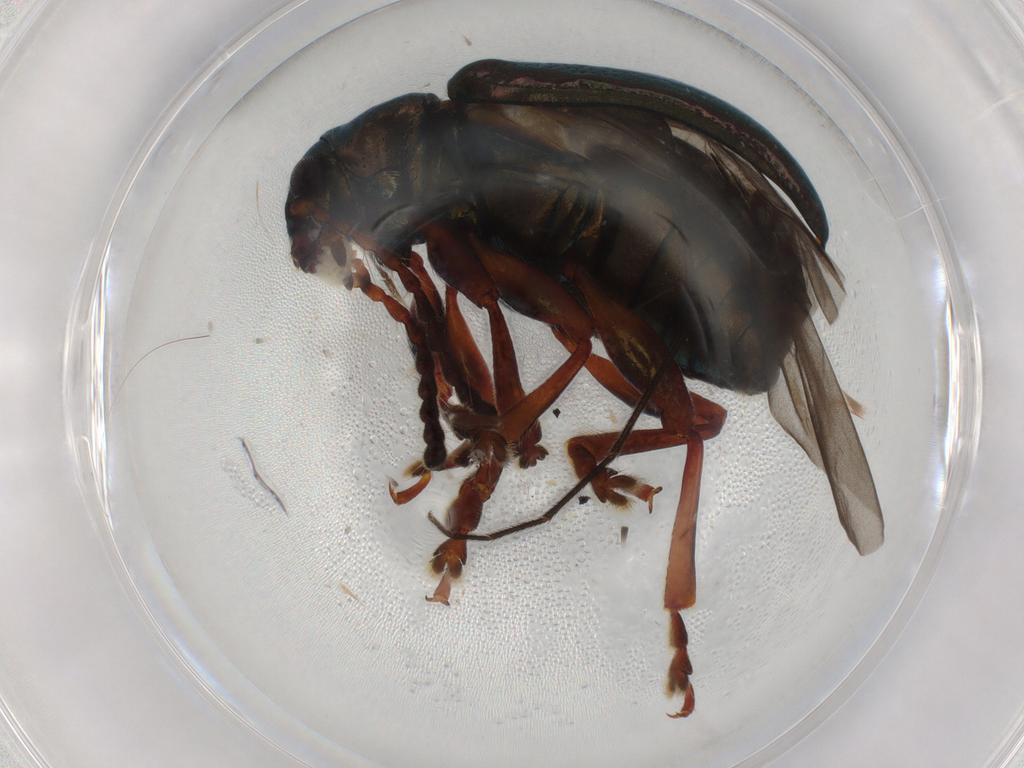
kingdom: Animalia
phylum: Arthropoda
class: Insecta
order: Coleoptera
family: Chrysomelidae
